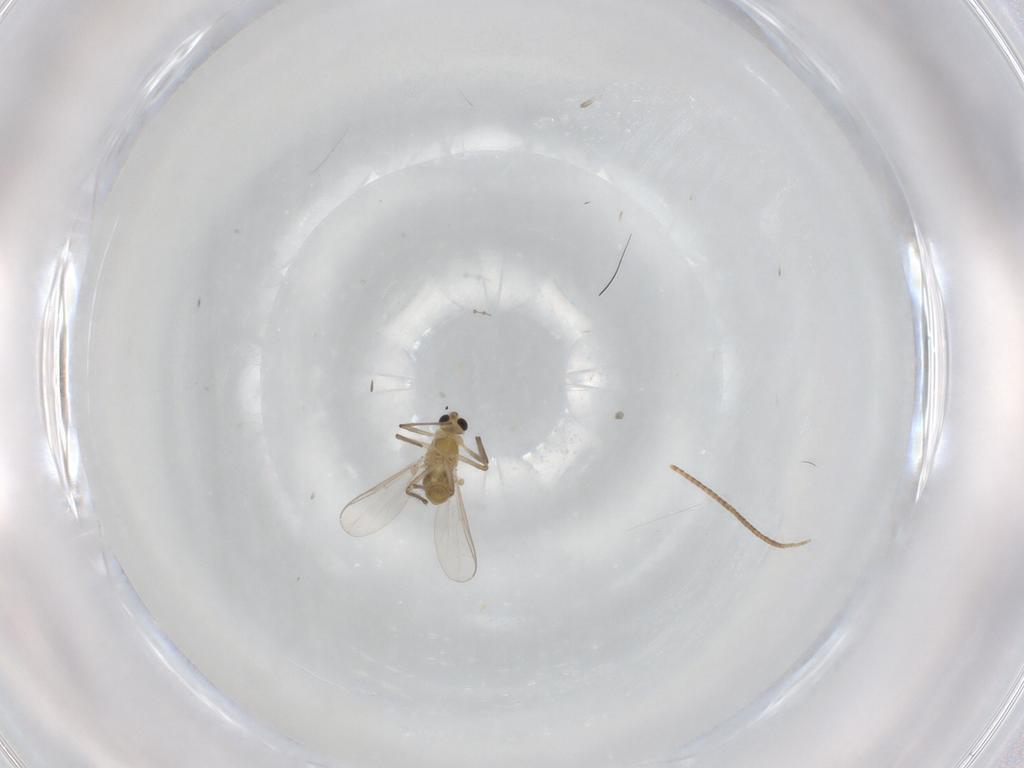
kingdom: Animalia
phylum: Arthropoda
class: Insecta
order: Diptera
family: Chironomidae
